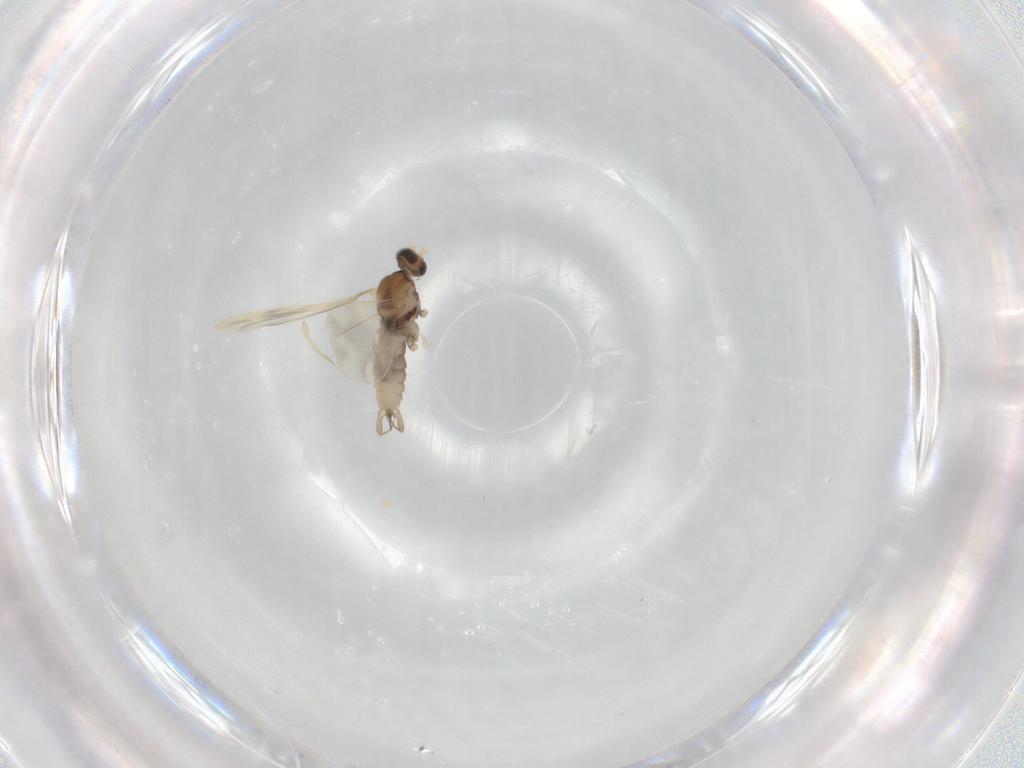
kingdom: Animalia
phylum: Arthropoda
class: Insecta
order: Diptera
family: Cecidomyiidae
